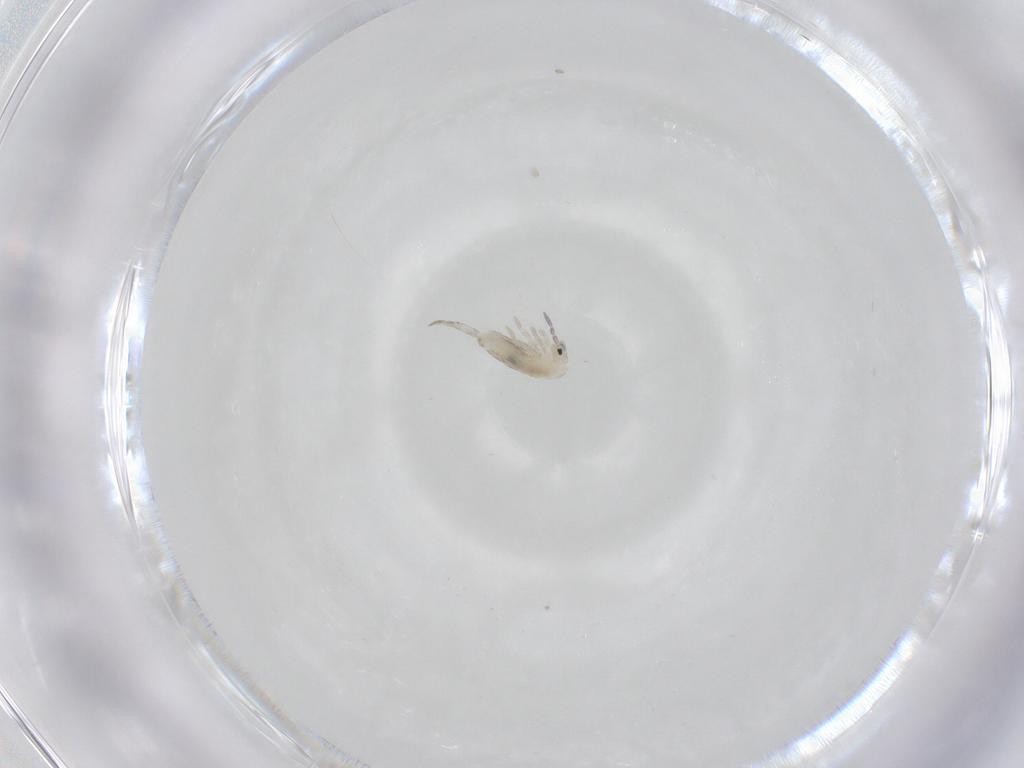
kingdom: Animalia
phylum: Arthropoda
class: Collembola
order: Entomobryomorpha
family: Entomobryidae
